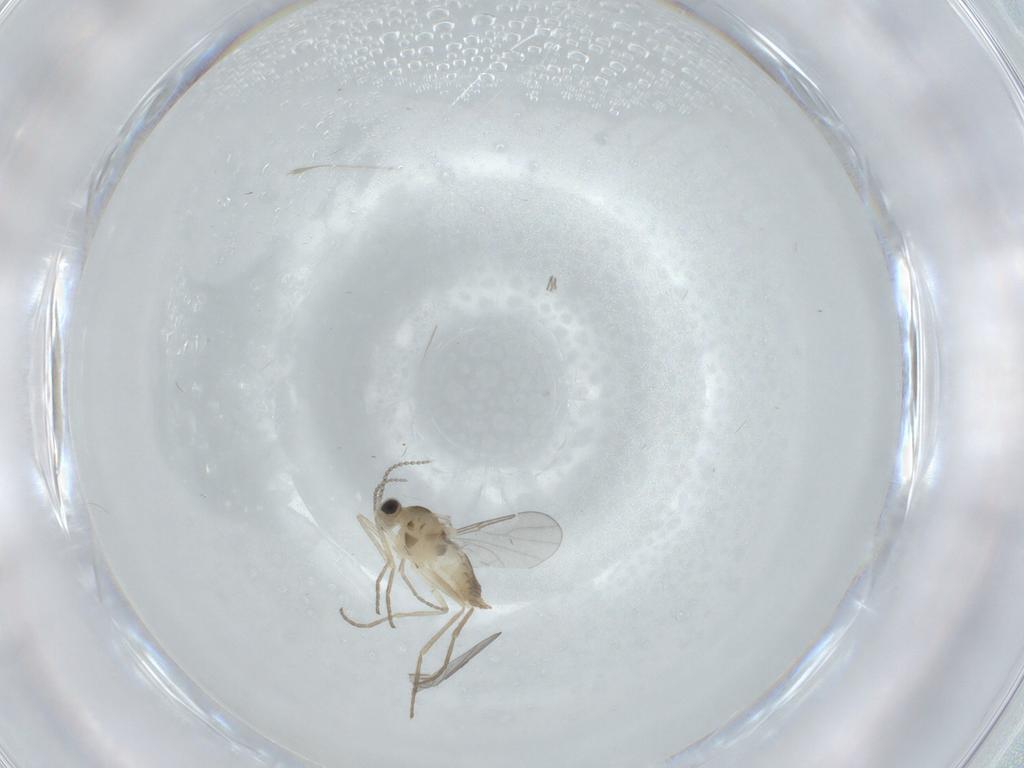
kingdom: Animalia
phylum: Arthropoda
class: Insecta
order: Diptera
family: Cecidomyiidae
